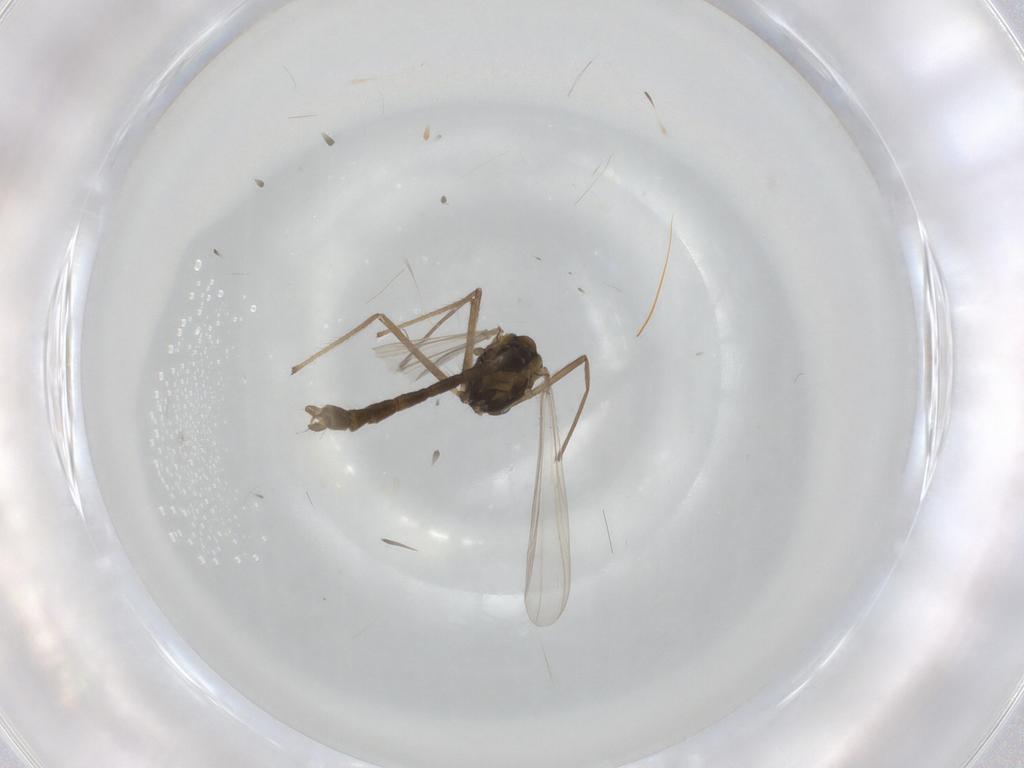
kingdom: Animalia
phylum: Arthropoda
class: Insecta
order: Diptera
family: Chironomidae
